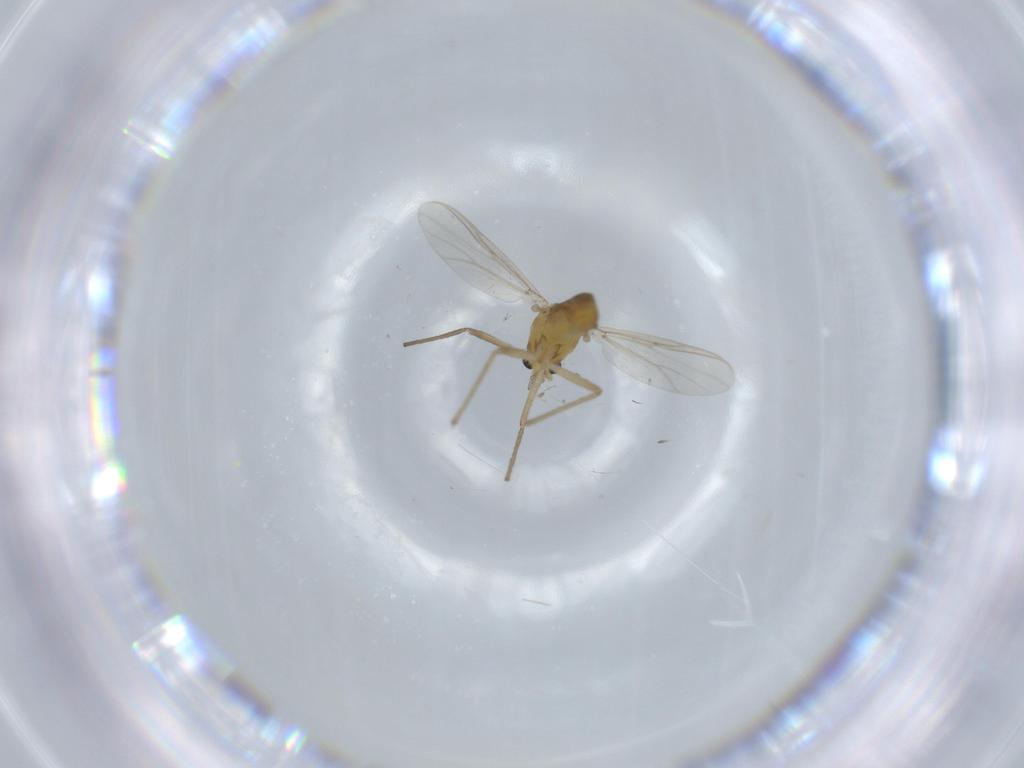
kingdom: Animalia
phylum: Arthropoda
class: Insecta
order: Diptera
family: Chironomidae
